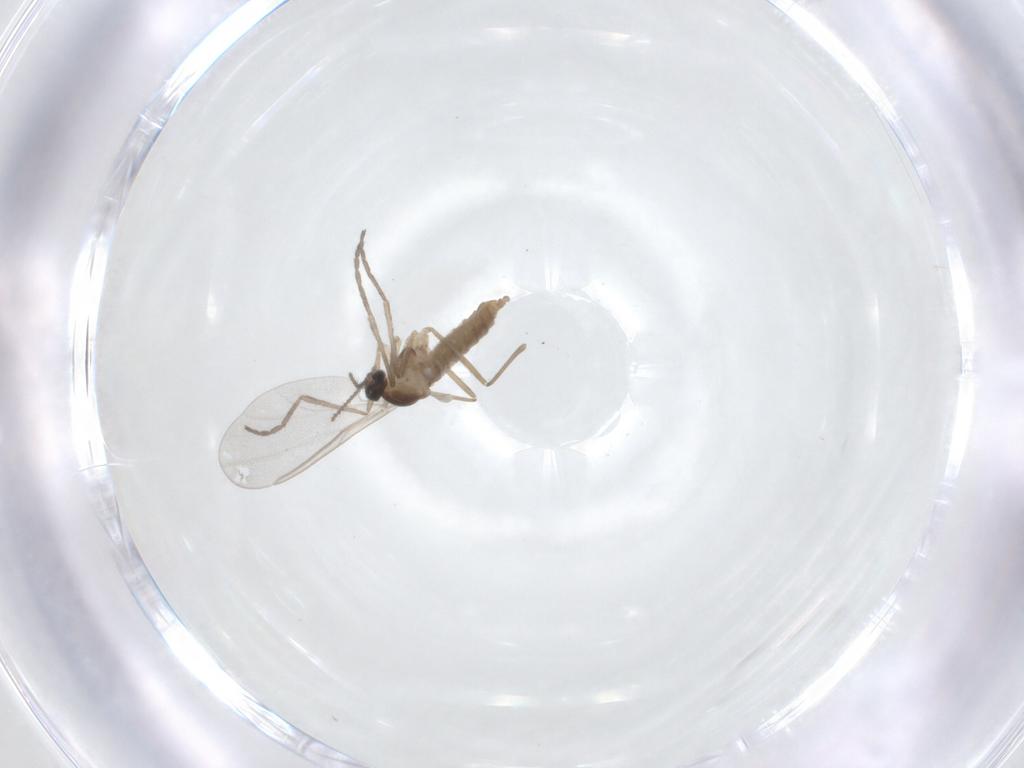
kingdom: Animalia
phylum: Arthropoda
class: Insecta
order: Diptera
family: Cecidomyiidae
